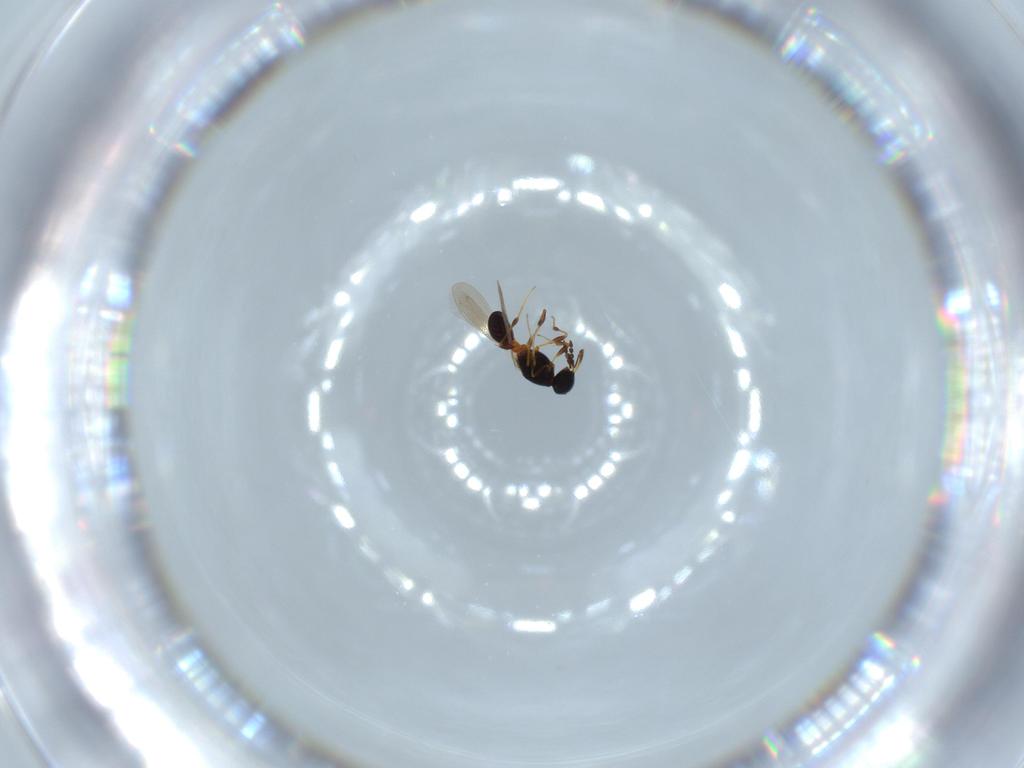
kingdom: Animalia
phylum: Arthropoda
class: Insecta
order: Hymenoptera
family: Platygastridae
